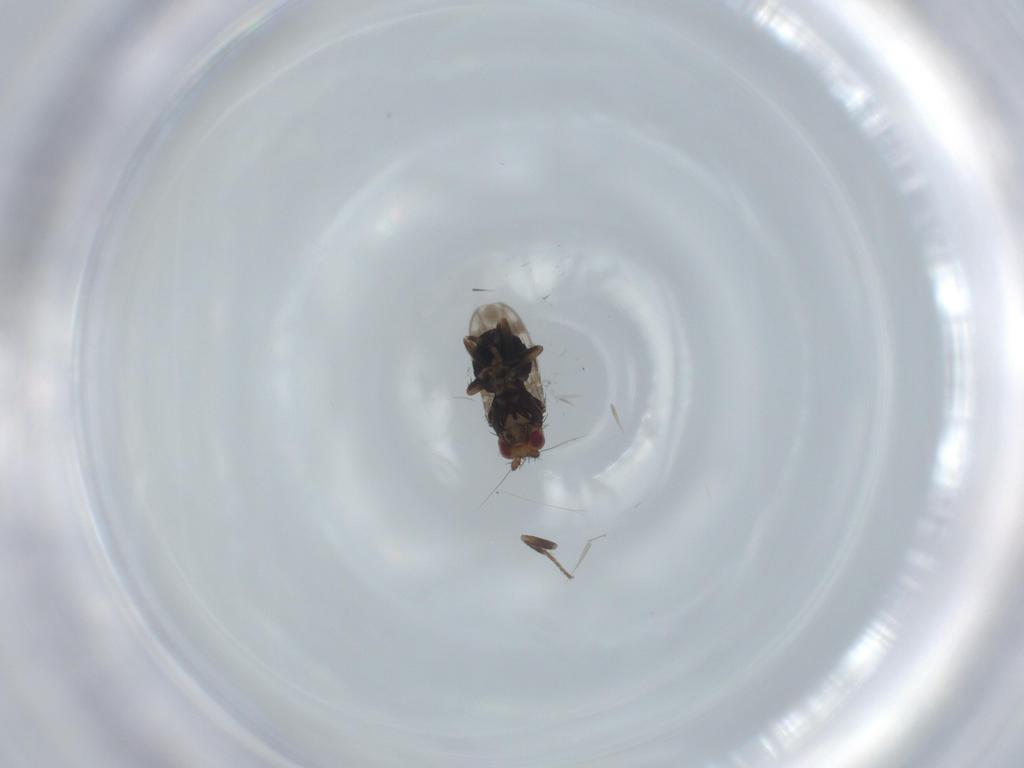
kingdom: Animalia
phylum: Arthropoda
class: Insecta
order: Diptera
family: Sphaeroceridae
